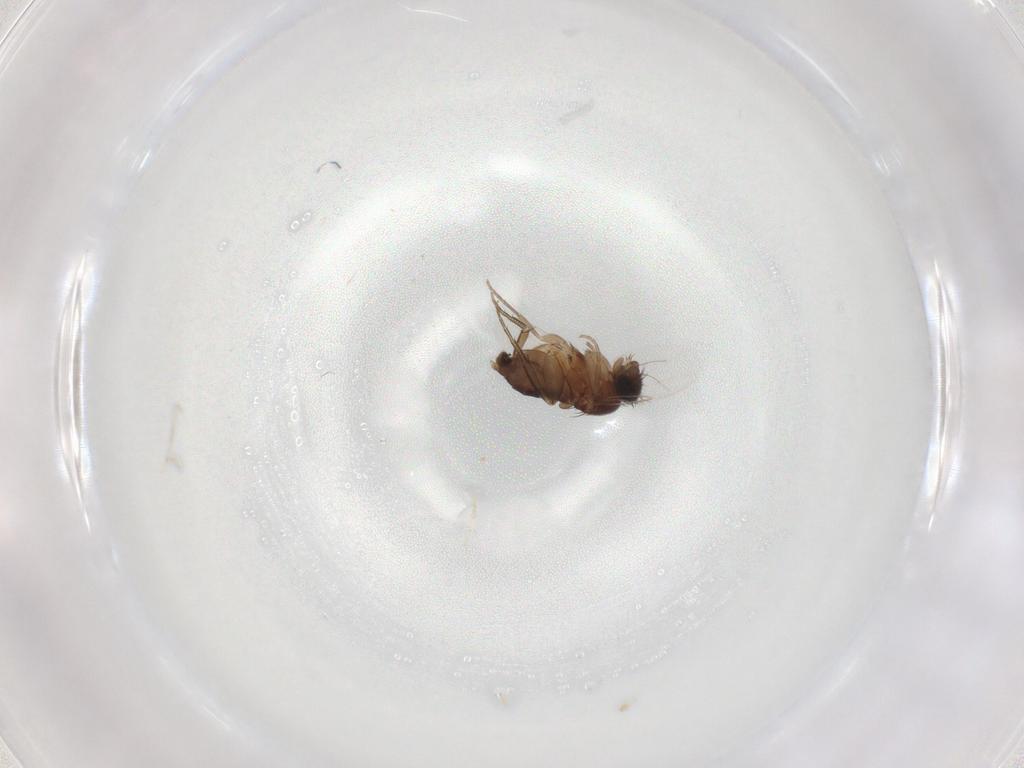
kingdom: Animalia
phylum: Arthropoda
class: Insecta
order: Diptera
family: Phoridae
